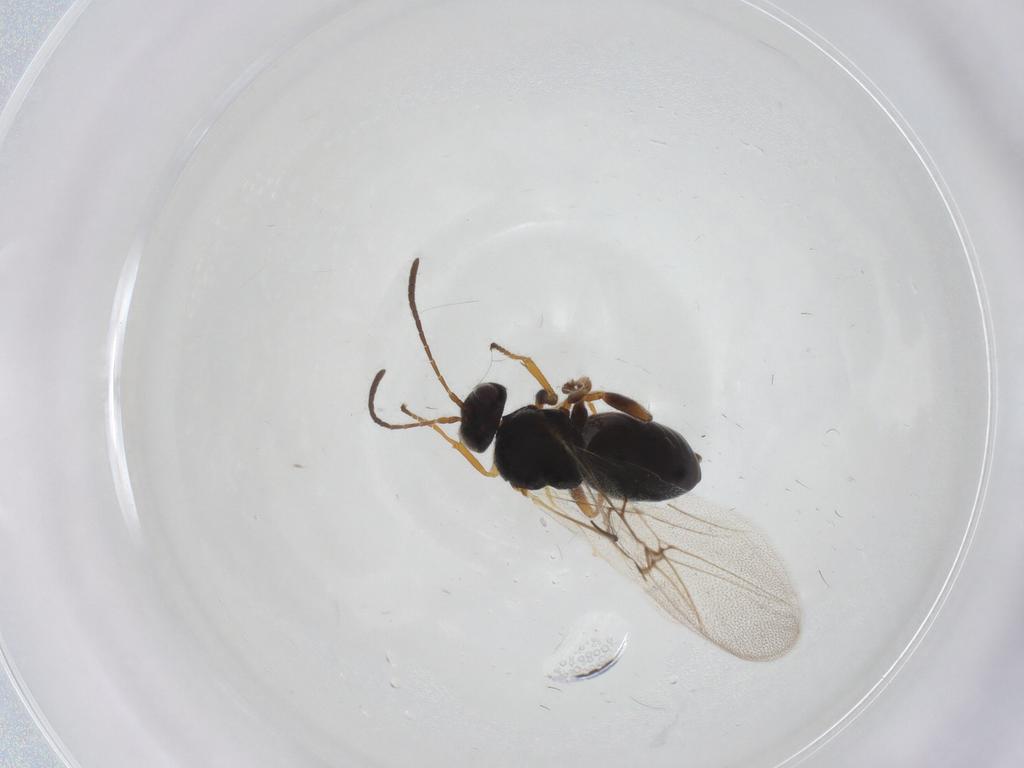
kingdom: Animalia
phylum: Arthropoda
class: Insecta
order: Hymenoptera
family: Cynipidae
